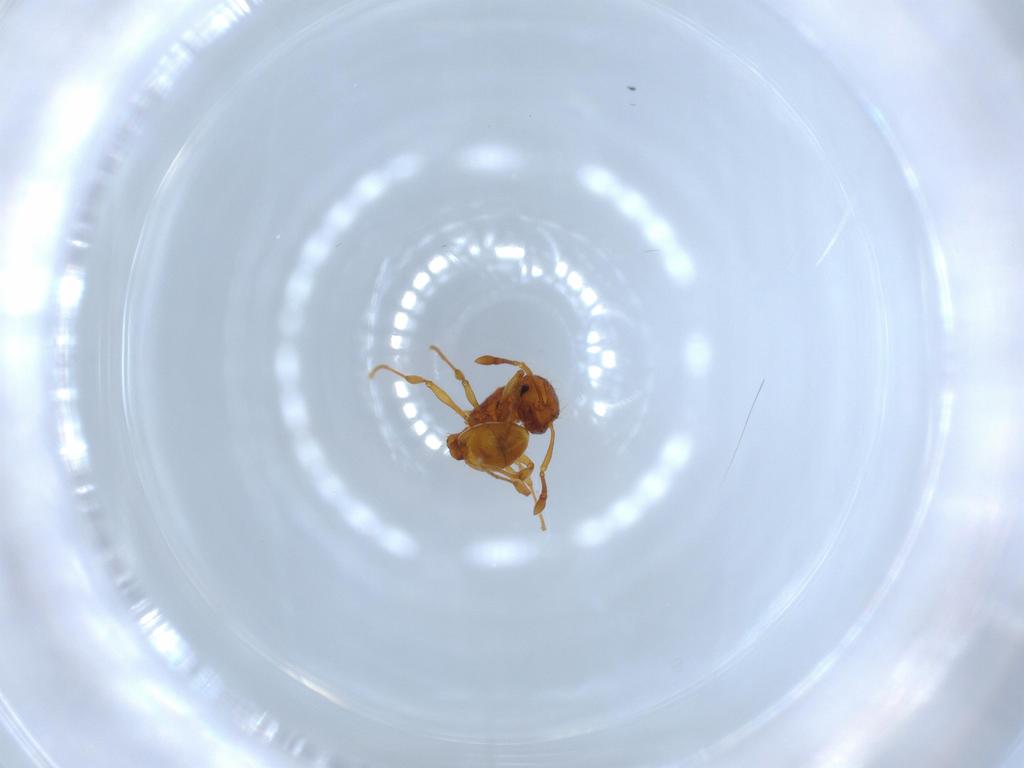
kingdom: Animalia
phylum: Arthropoda
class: Insecta
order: Hymenoptera
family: Formicidae
